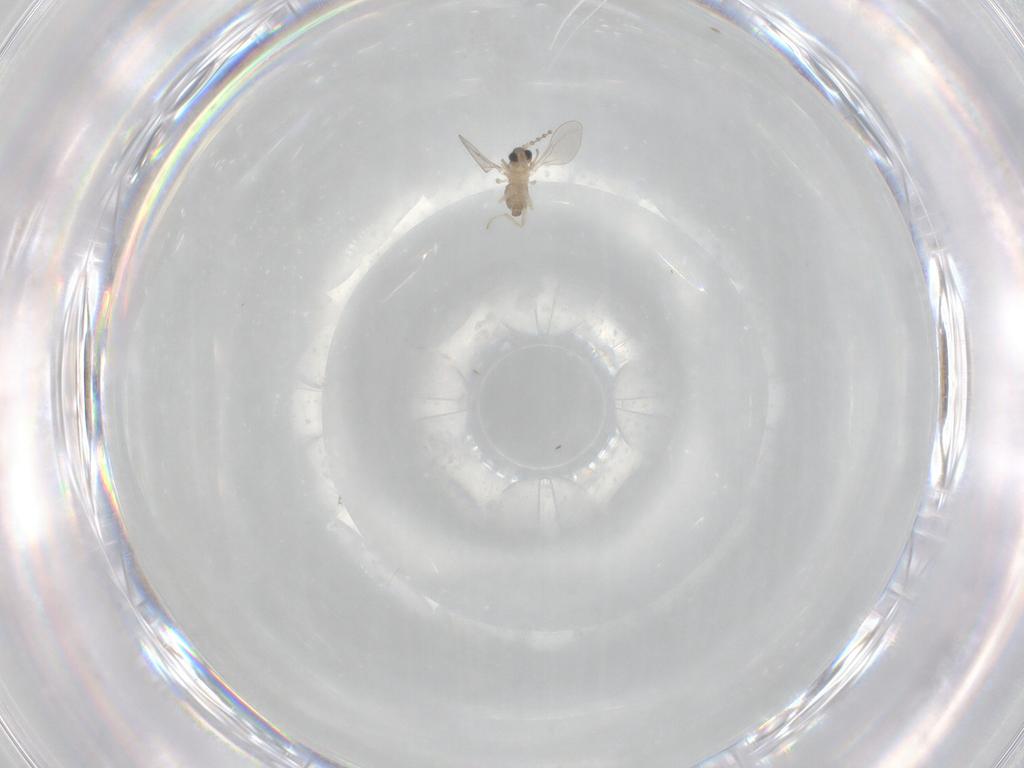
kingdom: Animalia
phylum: Arthropoda
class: Insecta
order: Diptera
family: Cecidomyiidae
